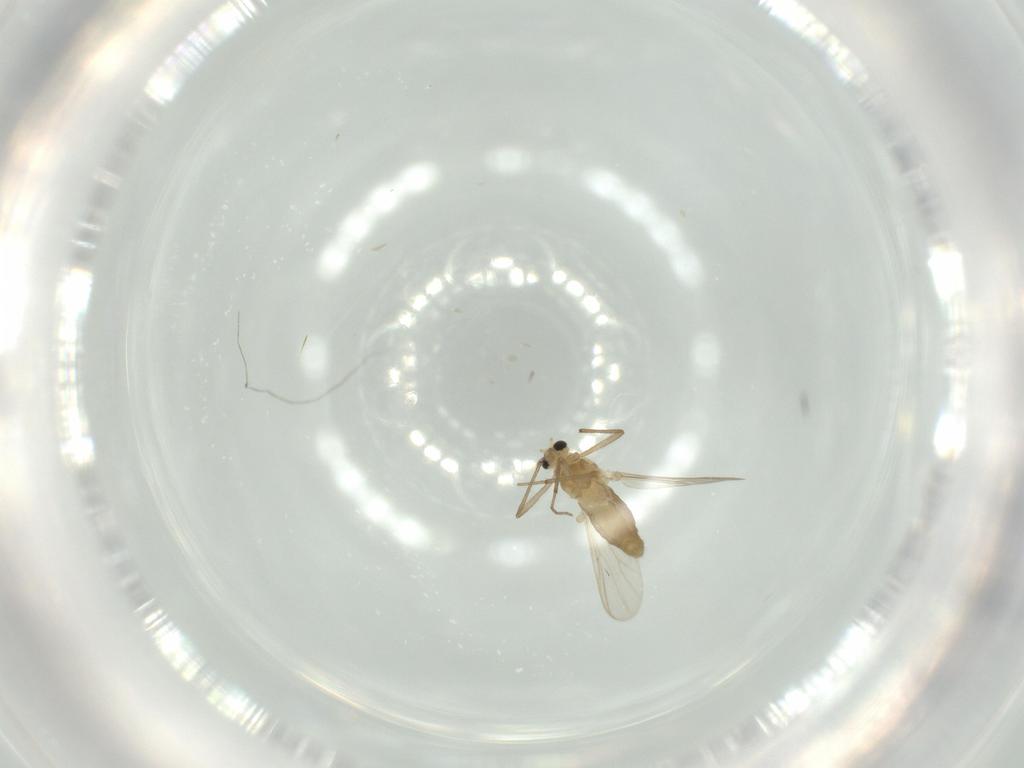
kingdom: Animalia
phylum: Arthropoda
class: Insecta
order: Diptera
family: Chironomidae
